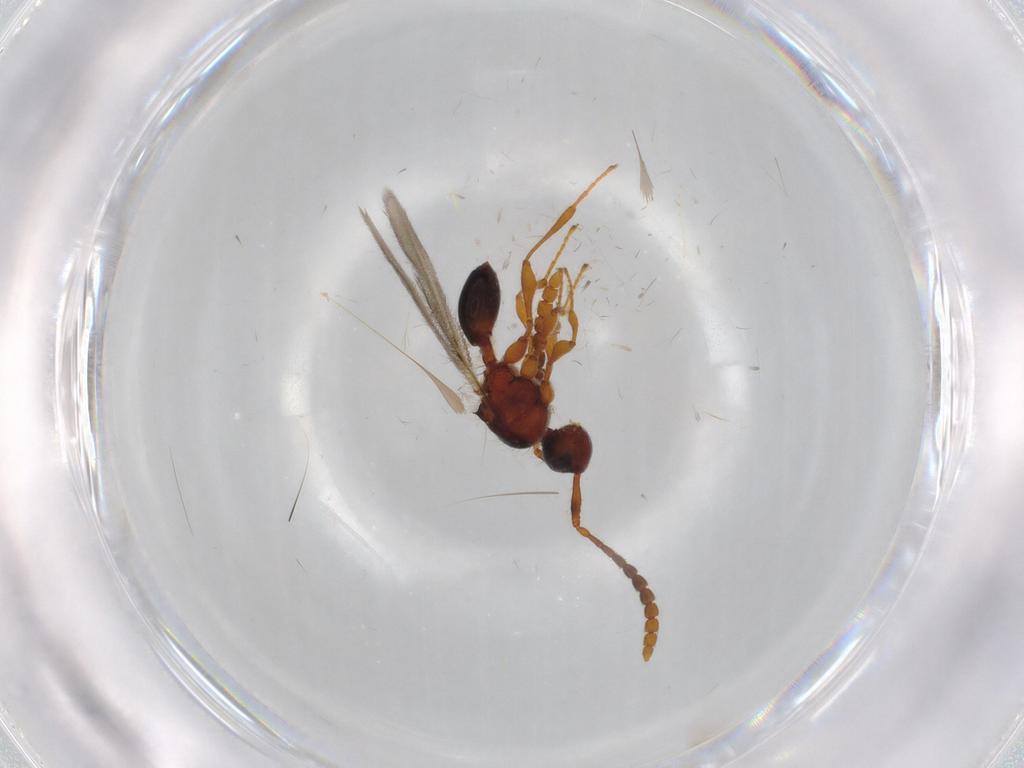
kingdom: Animalia
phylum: Arthropoda
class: Insecta
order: Hymenoptera
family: Diapriidae
